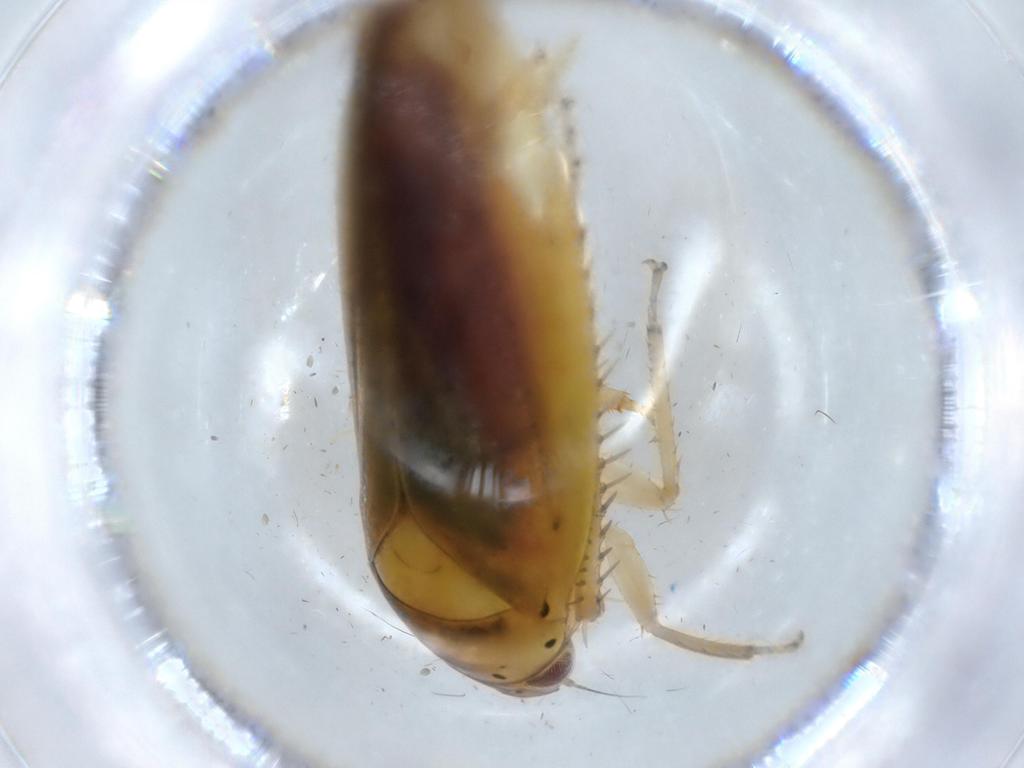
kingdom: Animalia
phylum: Arthropoda
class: Insecta
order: Hemiptera
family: Cicadellidae
